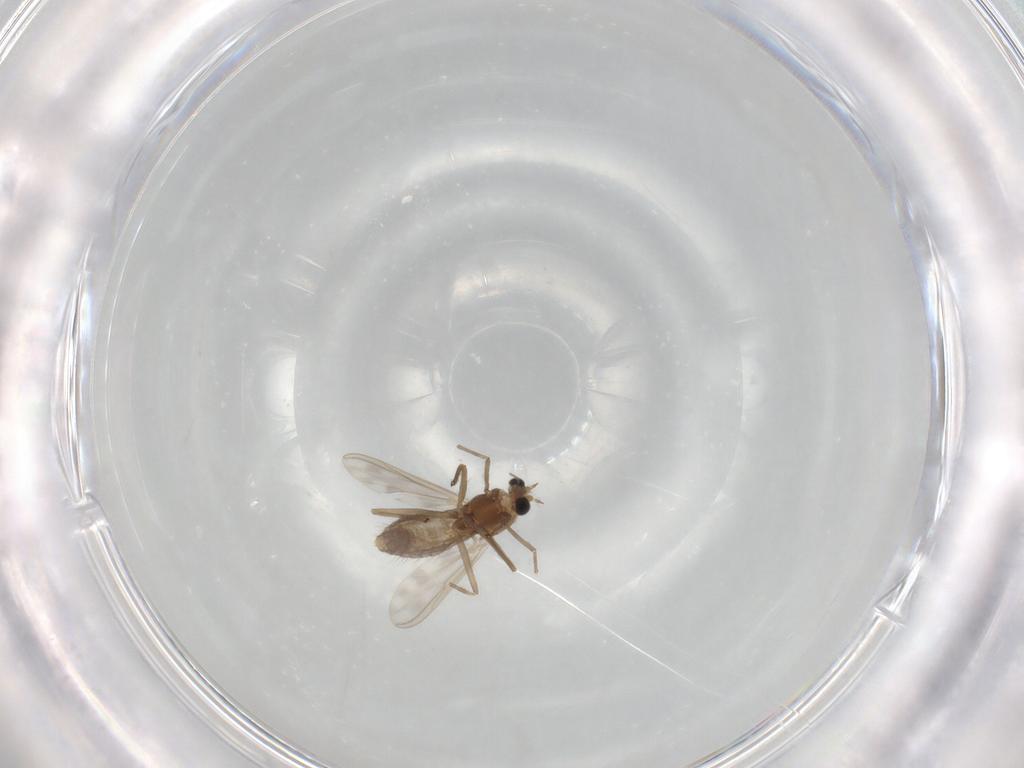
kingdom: Animalia
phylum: Arthropoda
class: Insecta
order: Diptera
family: Chironomidae
